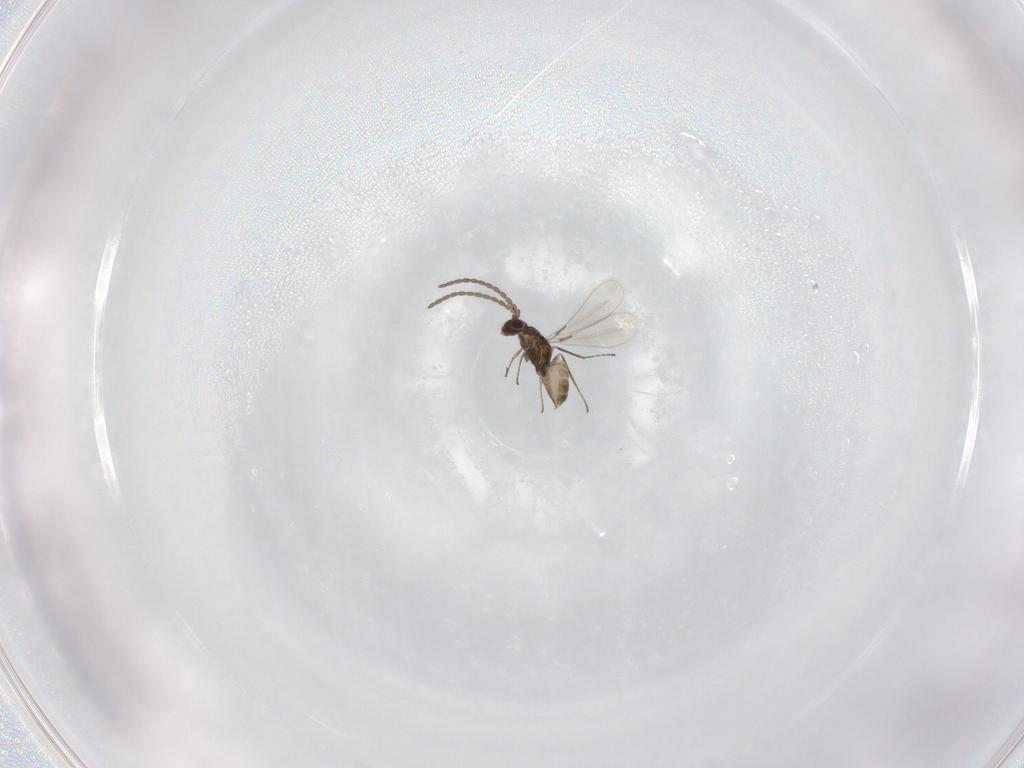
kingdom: Animalia
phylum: Arthropoda
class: Insecta
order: Hymenoptera
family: Mymaridae
